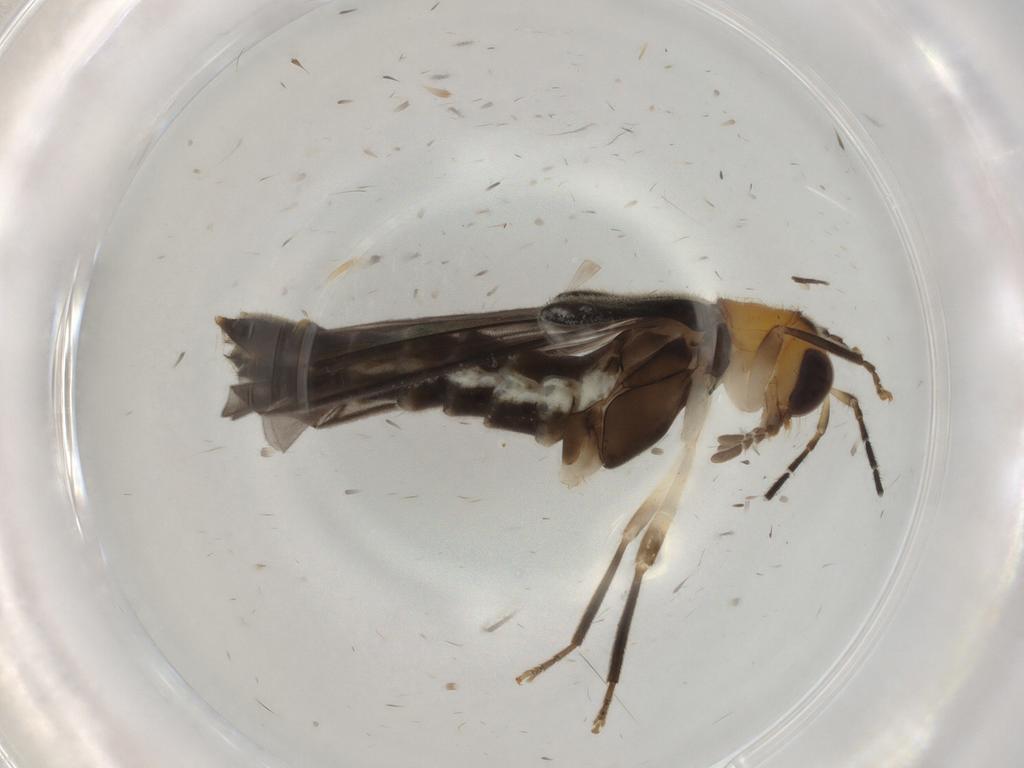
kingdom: Animalia
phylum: Arthropoda
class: Insecta
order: Coleoptera
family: Cantharidae
